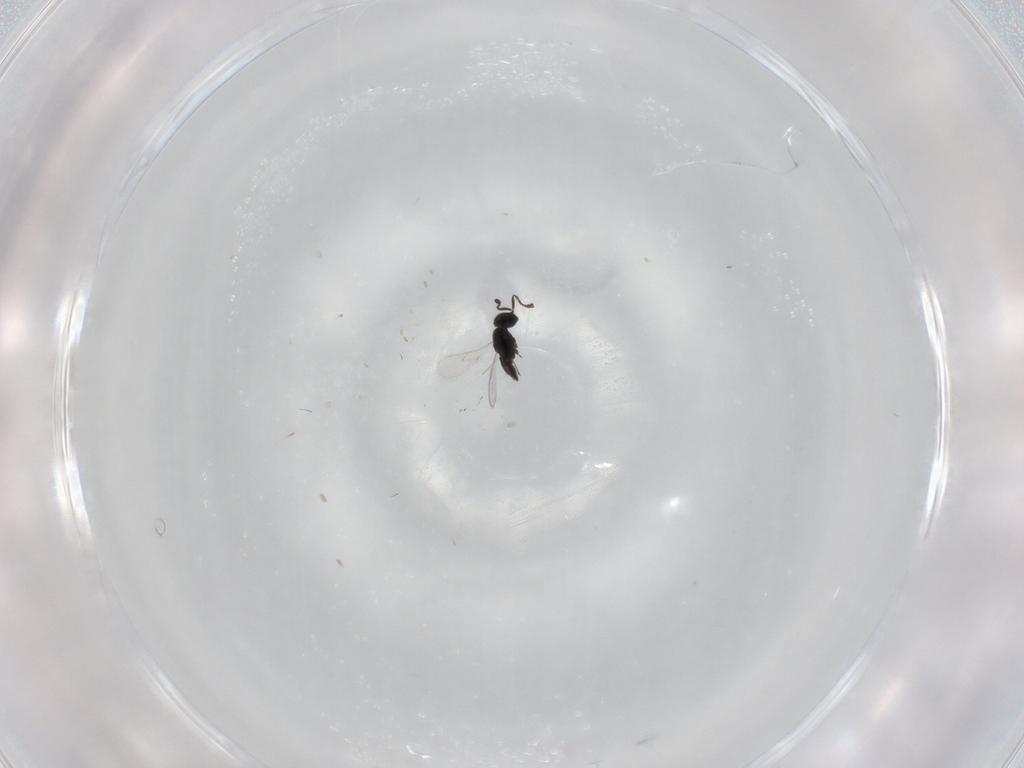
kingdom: Animalia
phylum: Arthropoda
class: Insecta
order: Hymenoptera
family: Scelionidae
